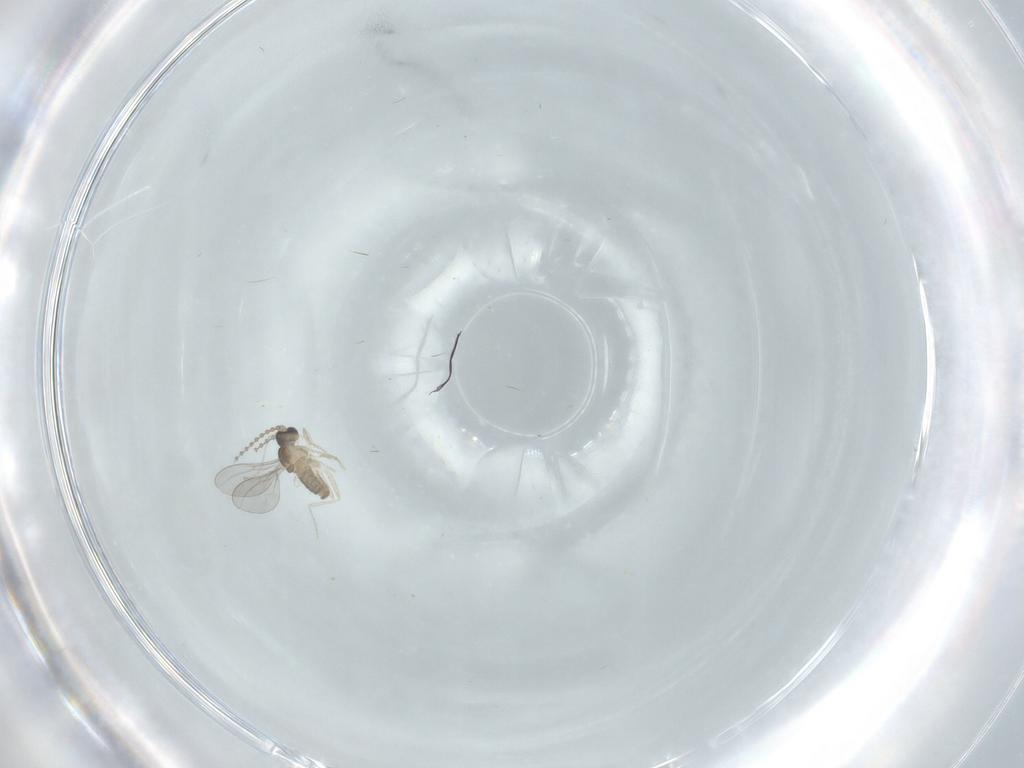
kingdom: Animalia
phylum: Arthropoda
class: Insecta
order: Diptera
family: Cecidomyiidae
